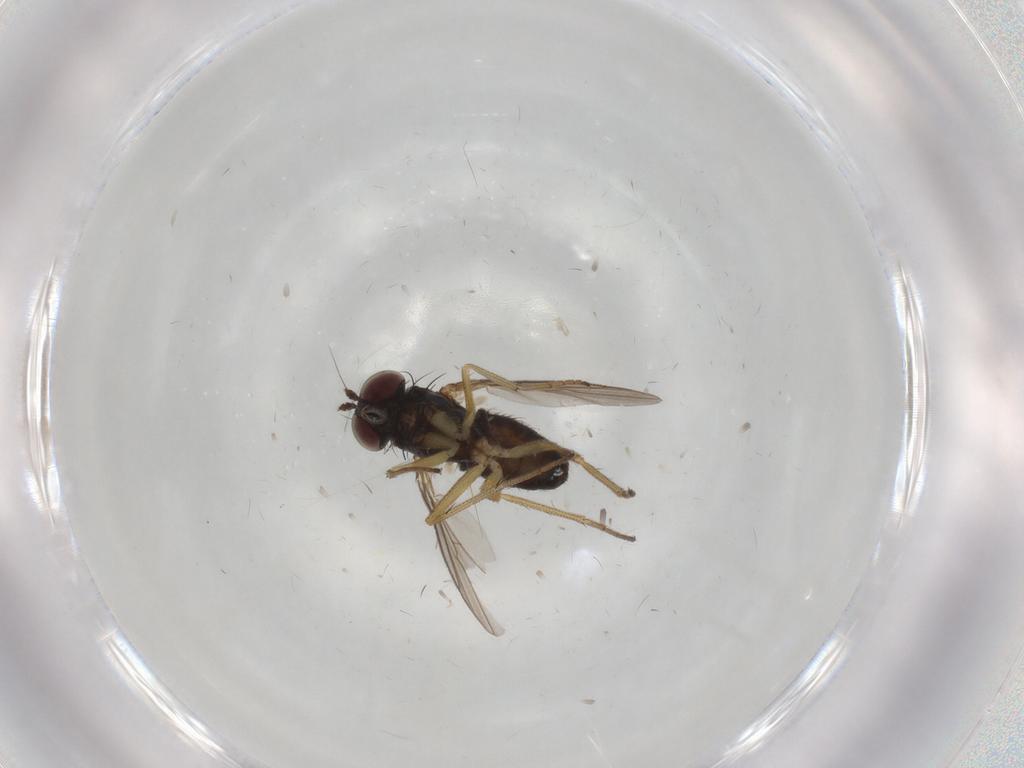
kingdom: Animalia
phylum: Arthropoda
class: Insecta
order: Diptera
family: Dolichopodidae
